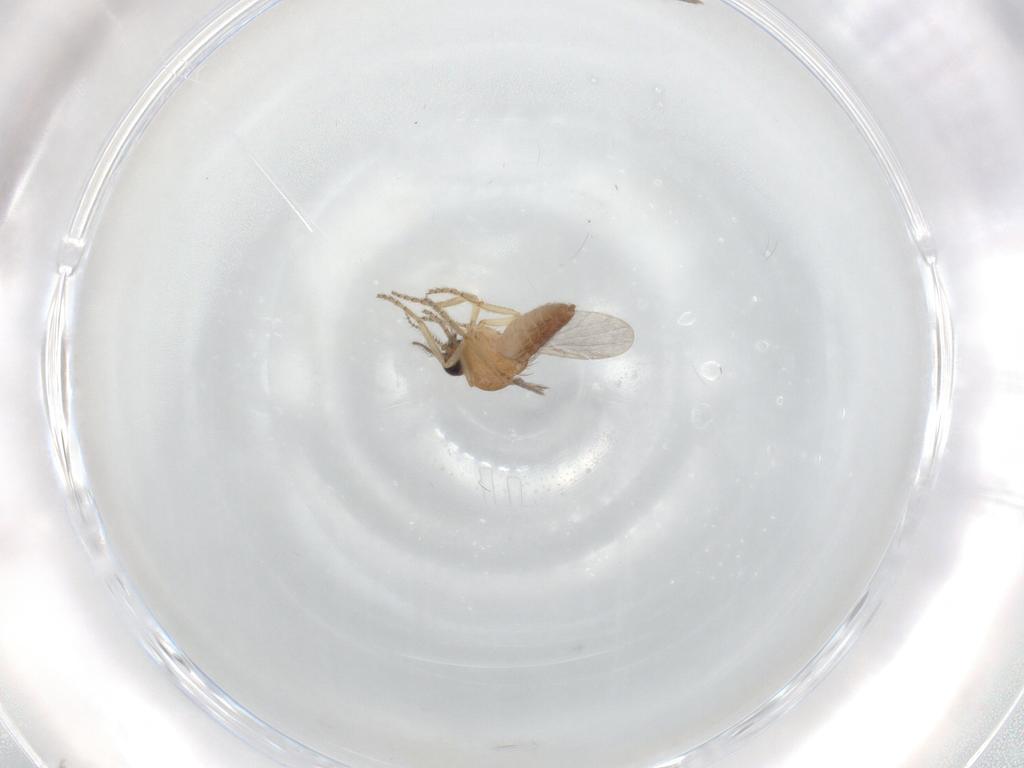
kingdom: Animalia
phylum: Arthropoda
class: Insecta
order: Diptera
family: Ceratopogonidae
